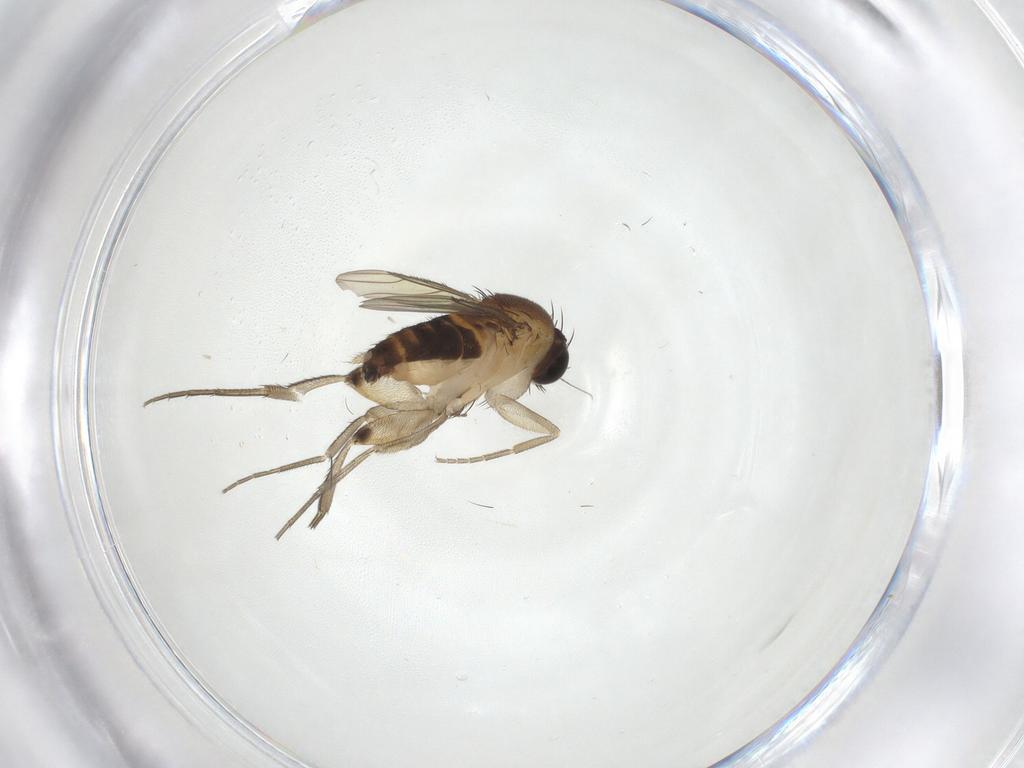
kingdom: Animalia
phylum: Arthropoda
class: Insecta
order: Diptera
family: Phoridae
